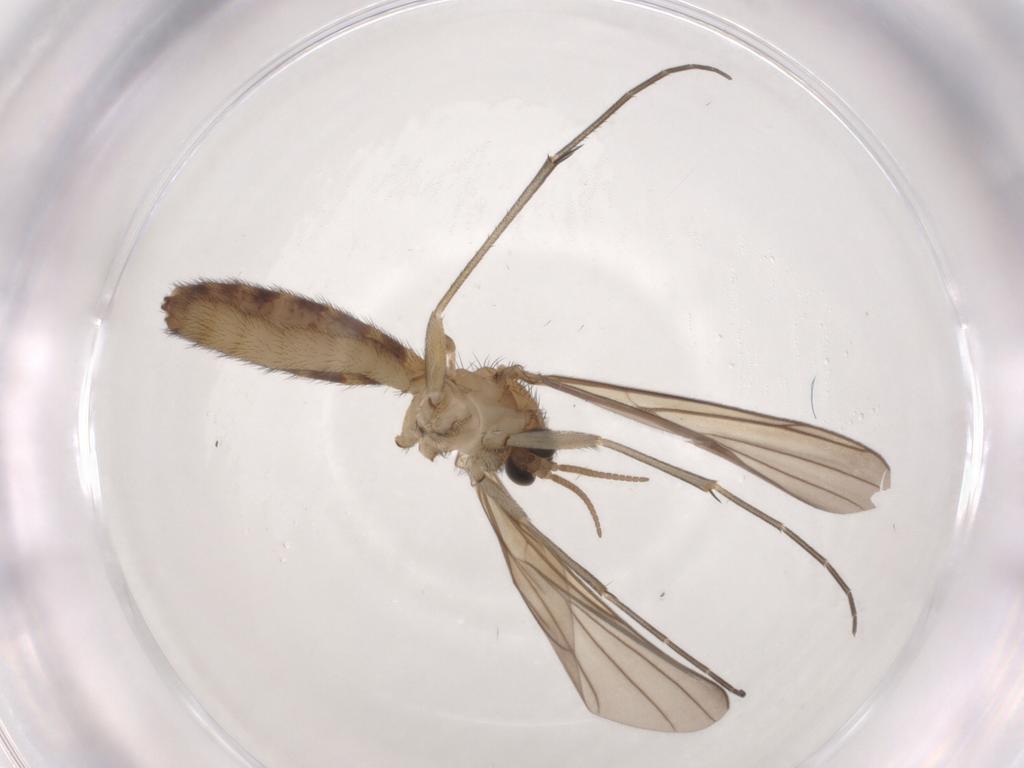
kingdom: Animalia
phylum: Arthropoda
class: Insecta
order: Diptera
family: Keroplatidae
